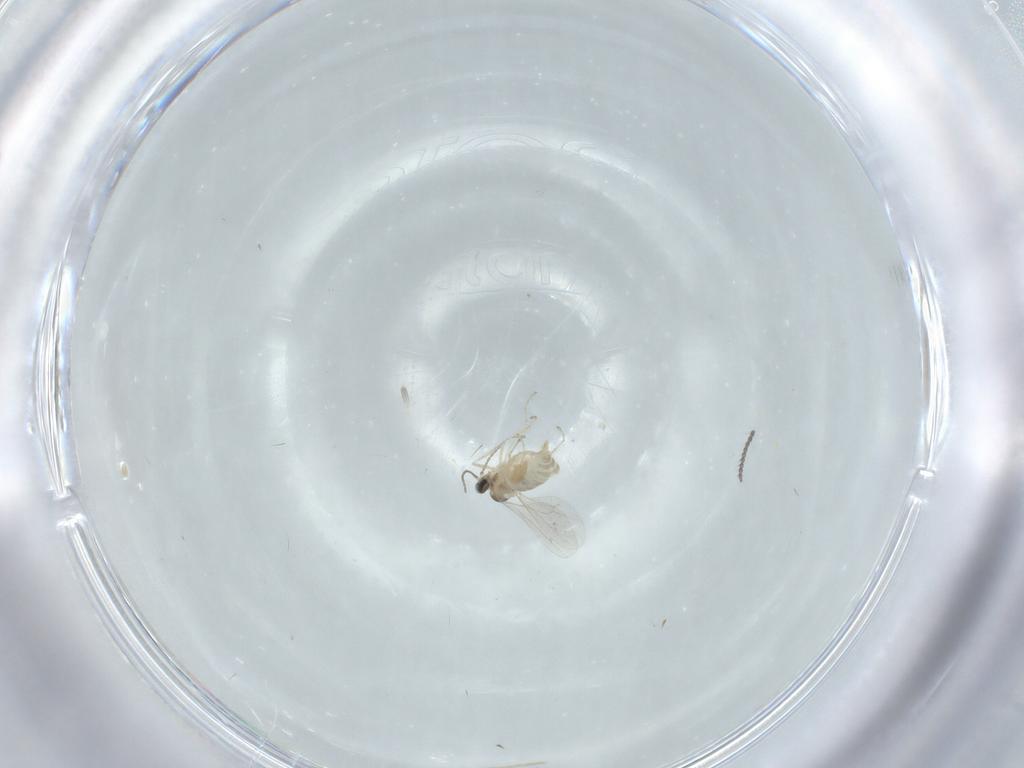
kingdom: Animalia
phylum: Arthropoda
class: Insecta
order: Diptera
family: Cecidomyiidae
